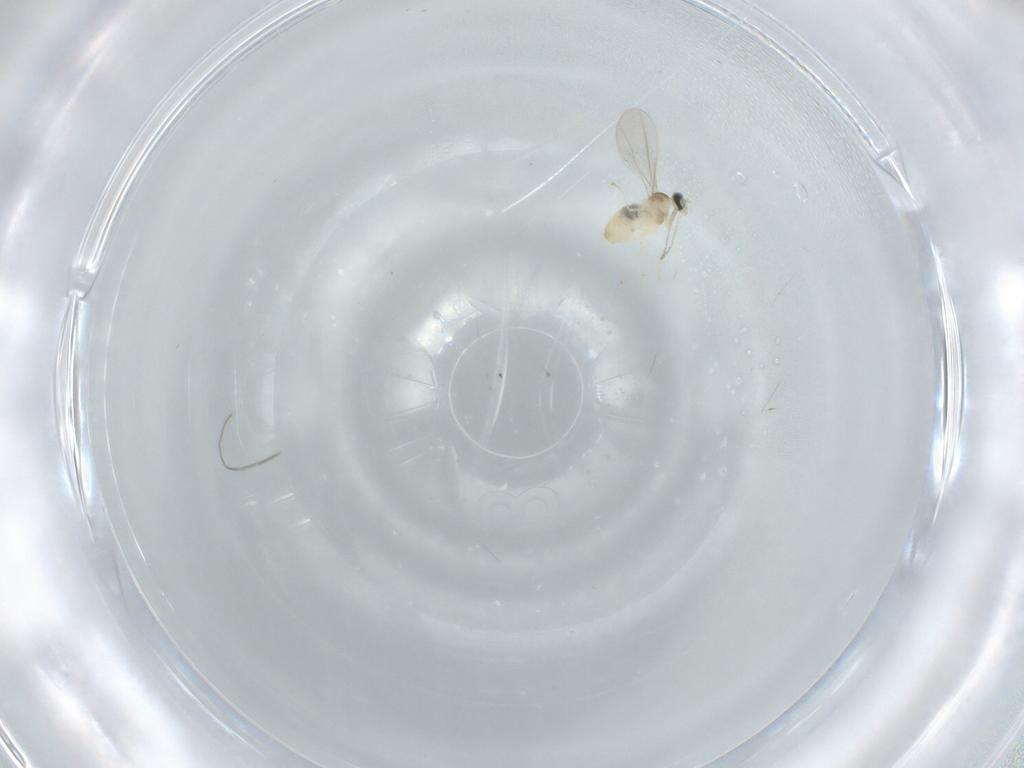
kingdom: Animalia
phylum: Arthropoda
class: Insecta
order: Diptera
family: Cecidomyiidae
